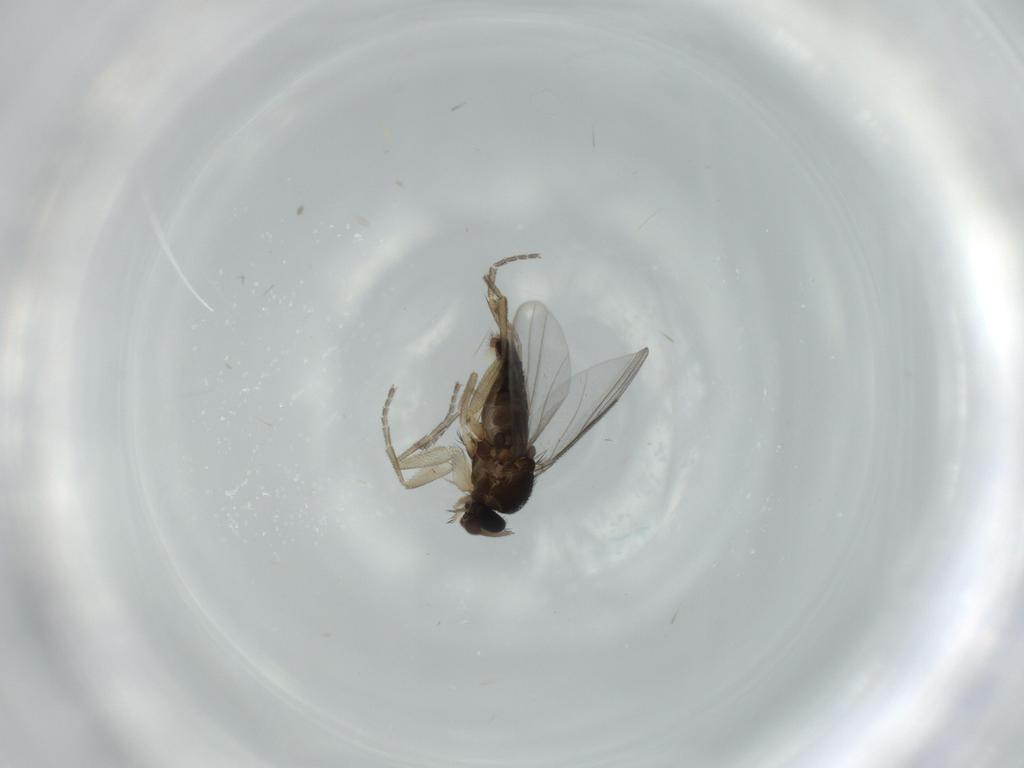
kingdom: Animalia
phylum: Arthropoda
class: Insecta
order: Diptera
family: Phoridae
